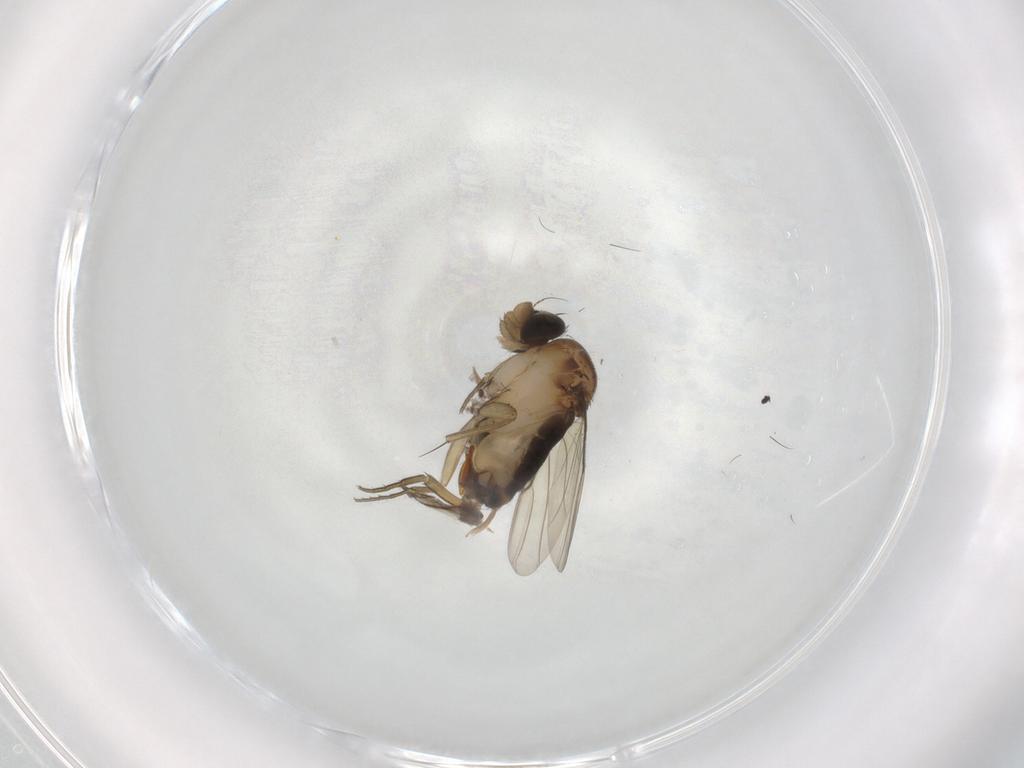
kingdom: Animalia
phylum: Arthropoda
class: Insecta
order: Diptera
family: Phoridae
